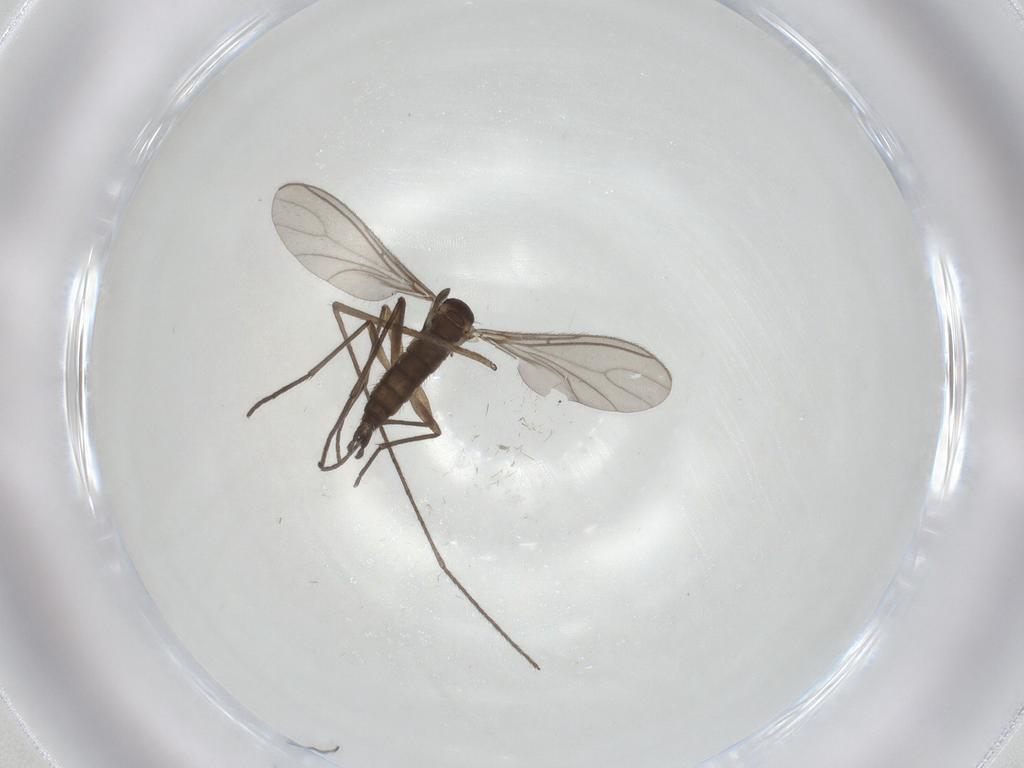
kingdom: Animalia
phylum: Arthropoda
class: Insecta
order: Diptera
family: Sciaridae
